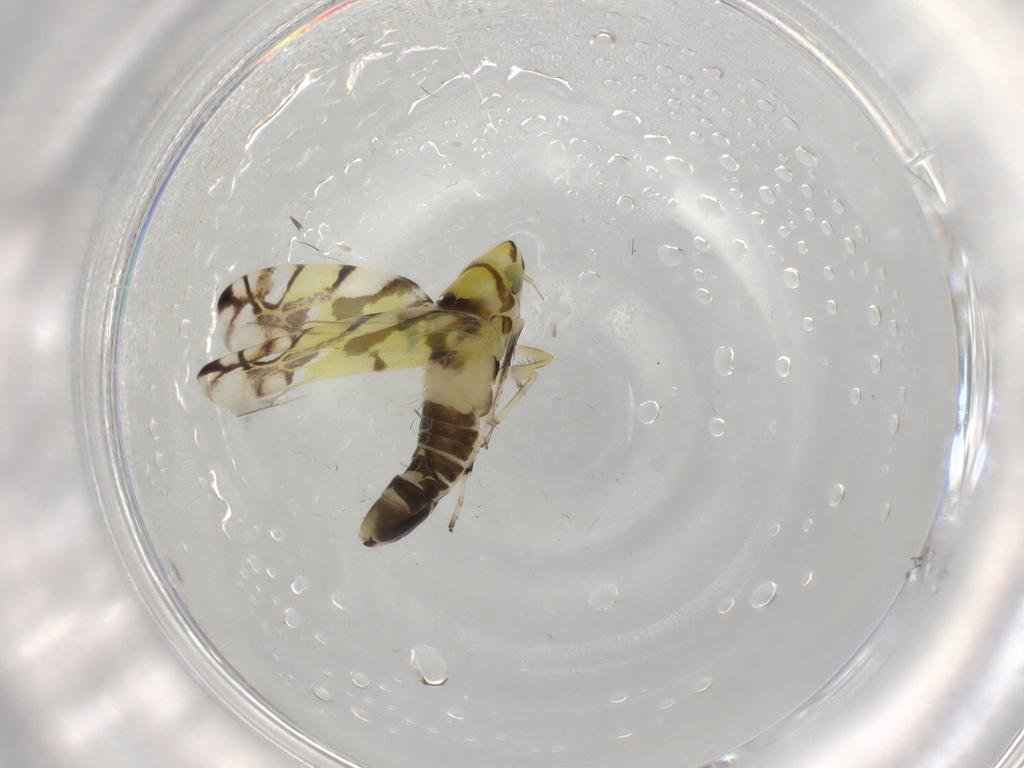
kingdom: Animalia
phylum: Arthropoda
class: Insecta
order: Hemiptera
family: Cicadellidae
